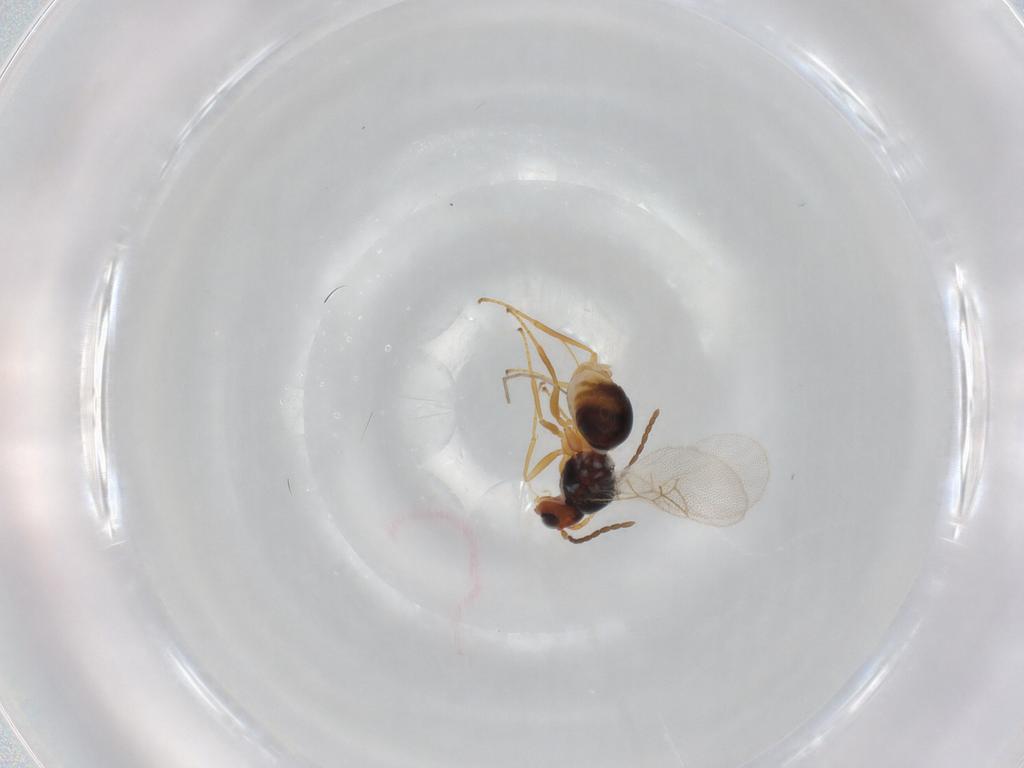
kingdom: Animalia
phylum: Arthropoda
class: Insecta
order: Hymenoptera
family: Figitidae
